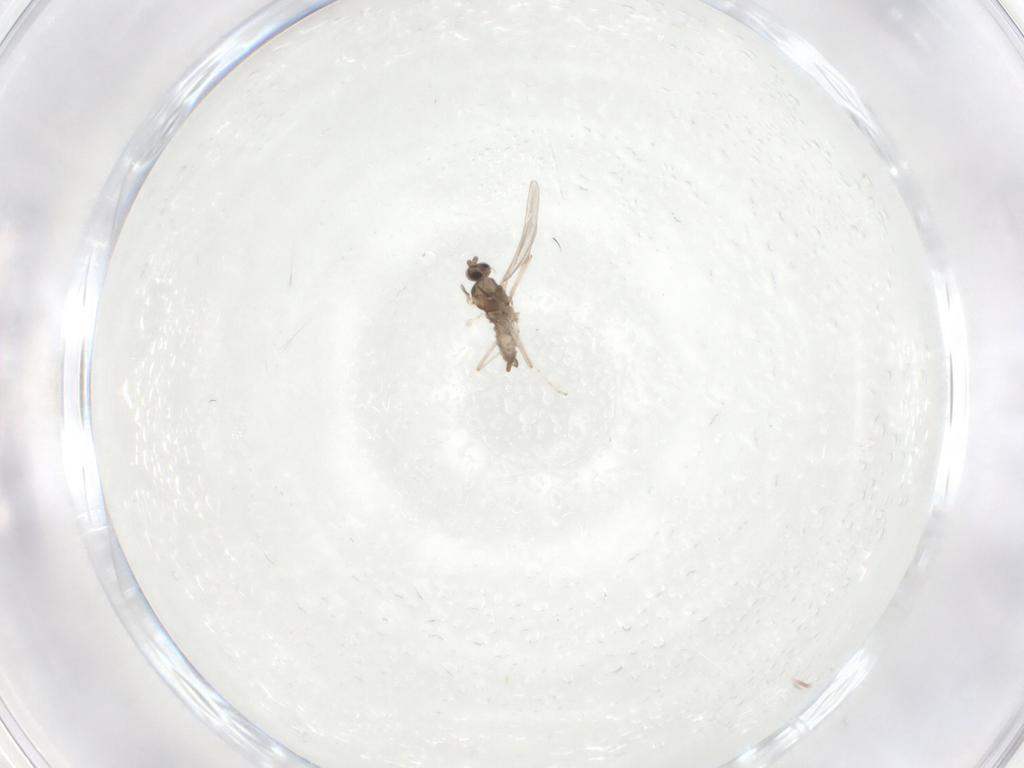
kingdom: Animalia
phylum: Arthropoda
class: Insecta
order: Diptera
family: Cecidomyiidae
